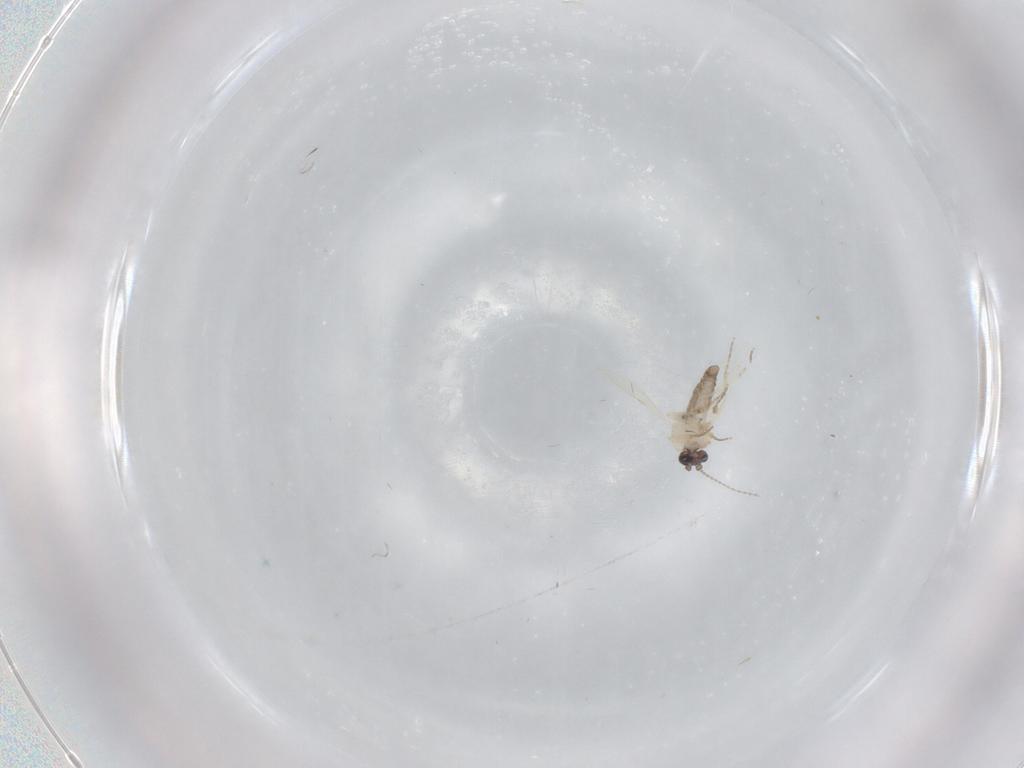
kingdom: Animalia
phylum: Arthropoda
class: Insecta
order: Diptera
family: Ceratopogonidae
